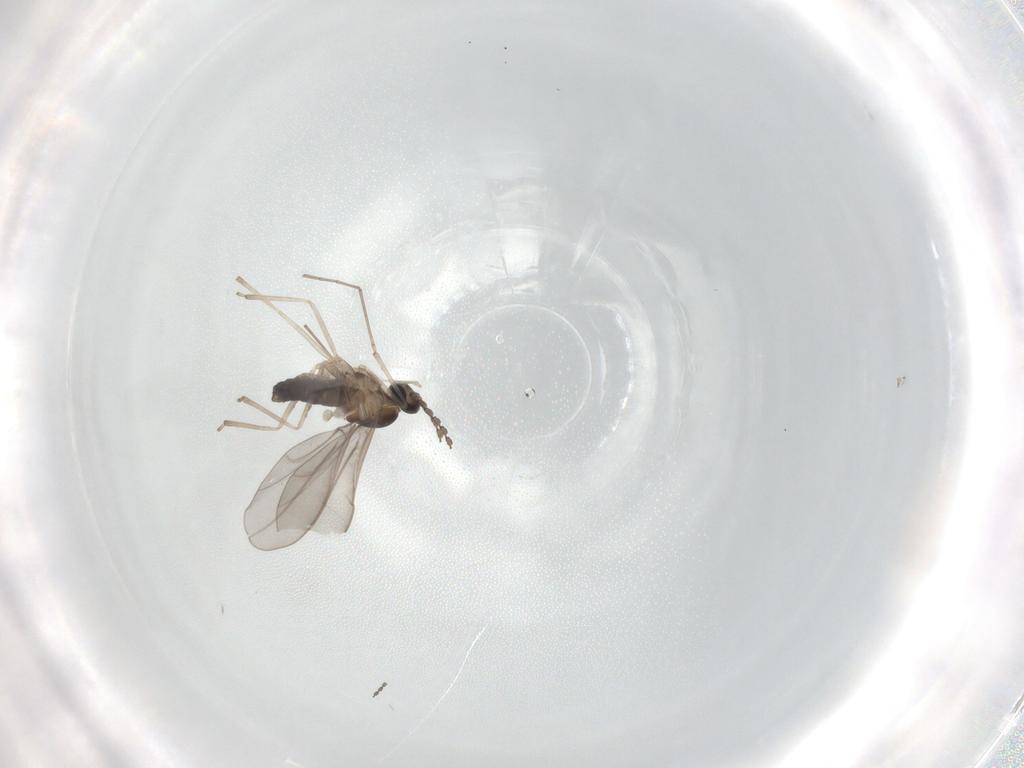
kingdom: Animalia
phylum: Arthropoda
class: Insecta
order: Diptera
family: Cecidomyiidae
